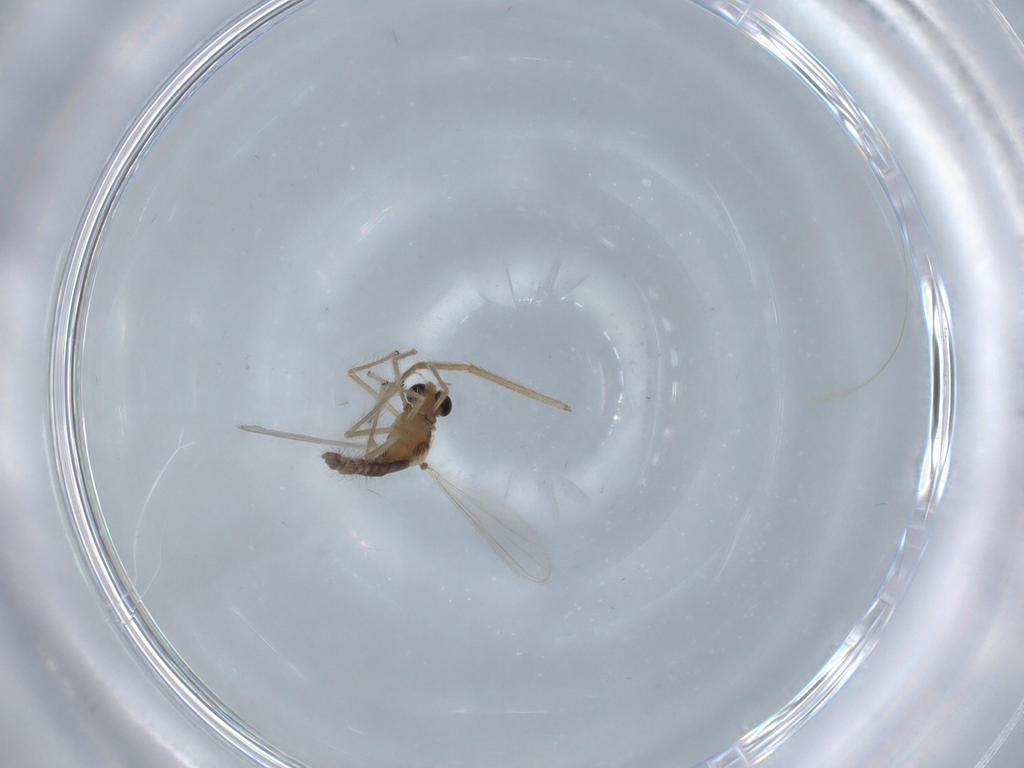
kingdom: Animalia
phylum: Arthropoda
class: Insecta
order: Diptera
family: Chironomidae
